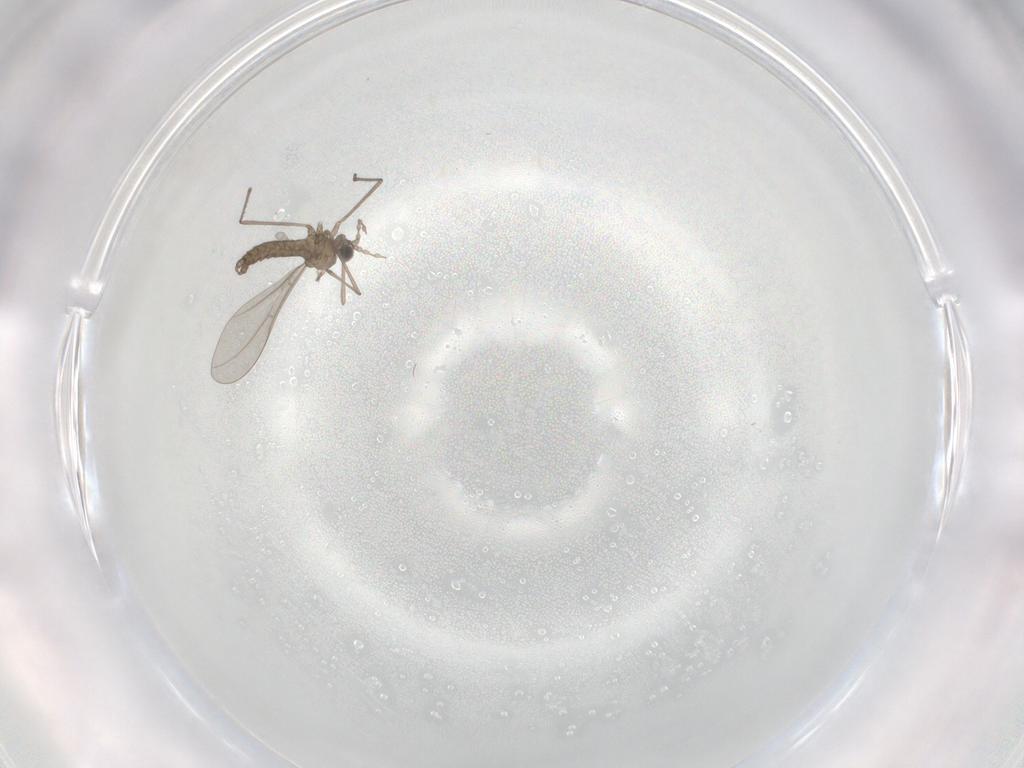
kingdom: Animalia
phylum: Arthropoda
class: Insecta
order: Diptera
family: Cecidomyiidae
